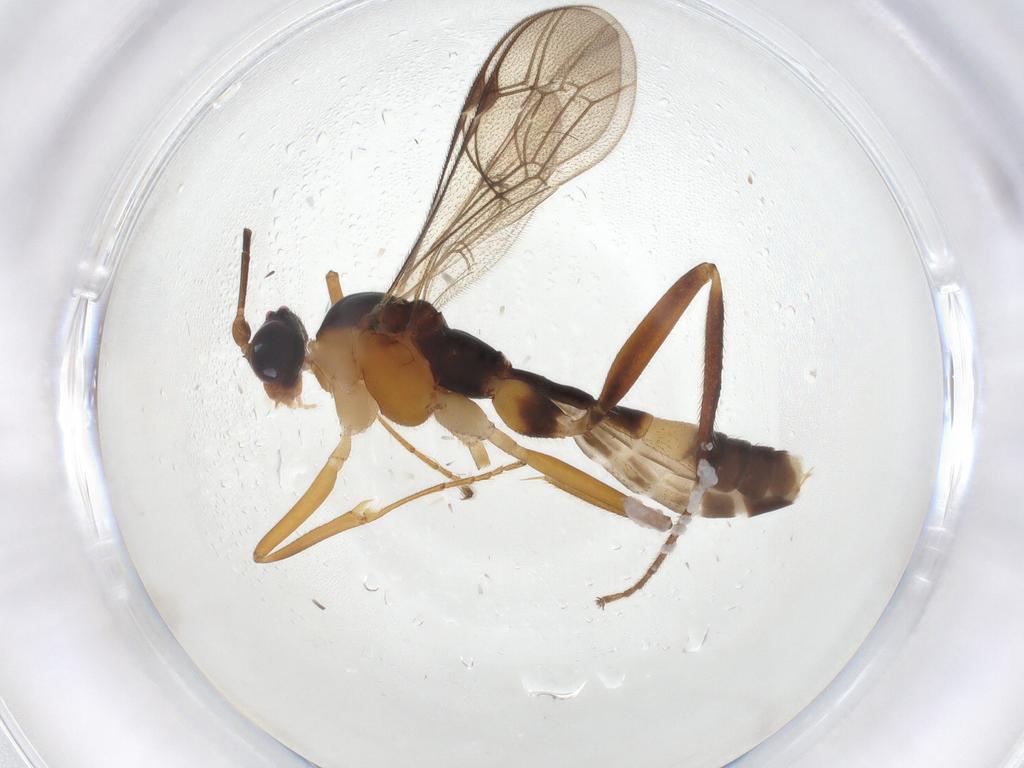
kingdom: Animalia
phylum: Arthropoda
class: Insecta
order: Hymenoptera
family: Ichneumonidae
